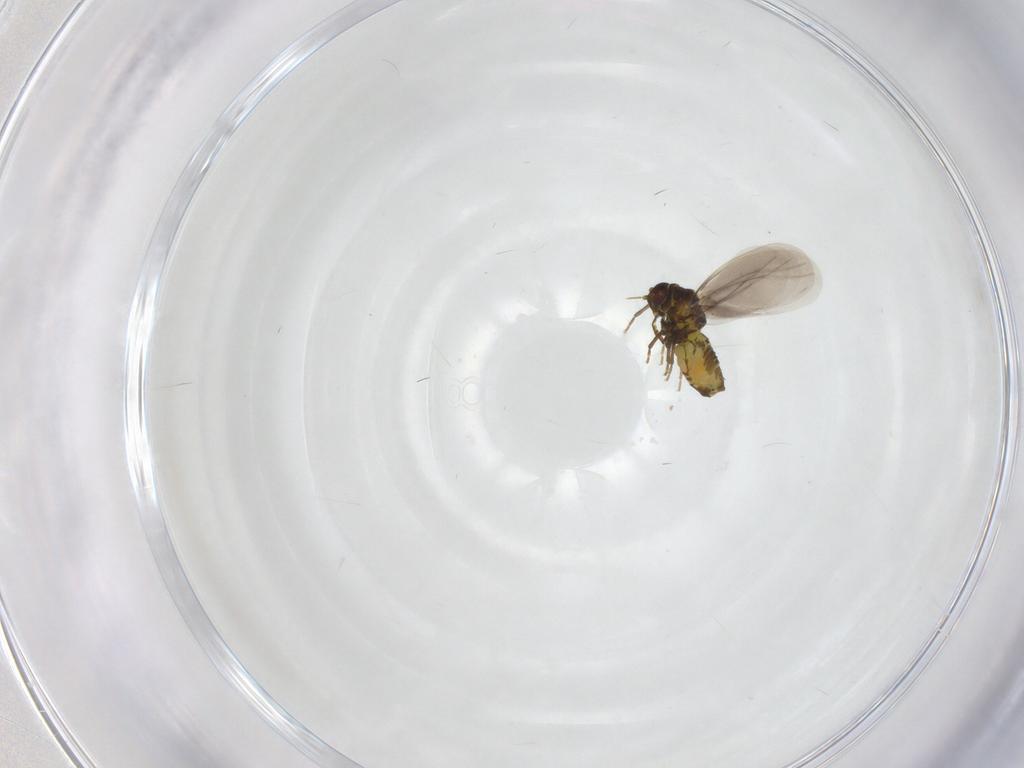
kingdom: Animalia
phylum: Arthropoda
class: Insecta
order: Hemiptera
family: Aleyrodidae
